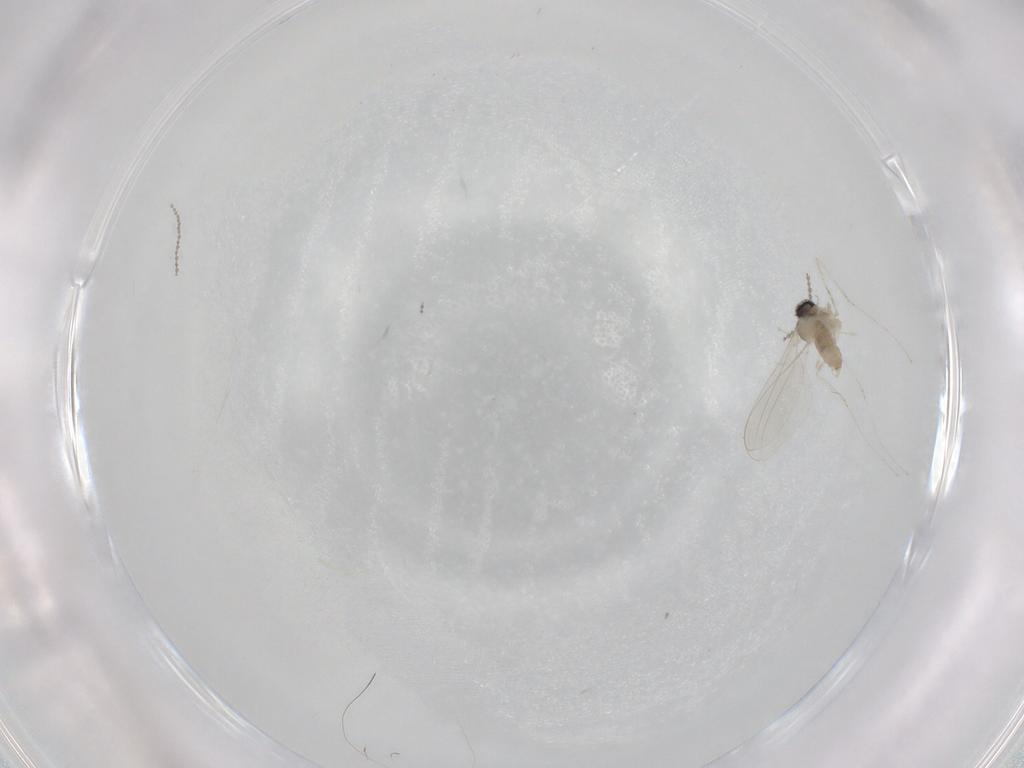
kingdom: Animalia
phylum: Arthropoda
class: Insecta
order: Diptera
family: Cecidomyiidae
